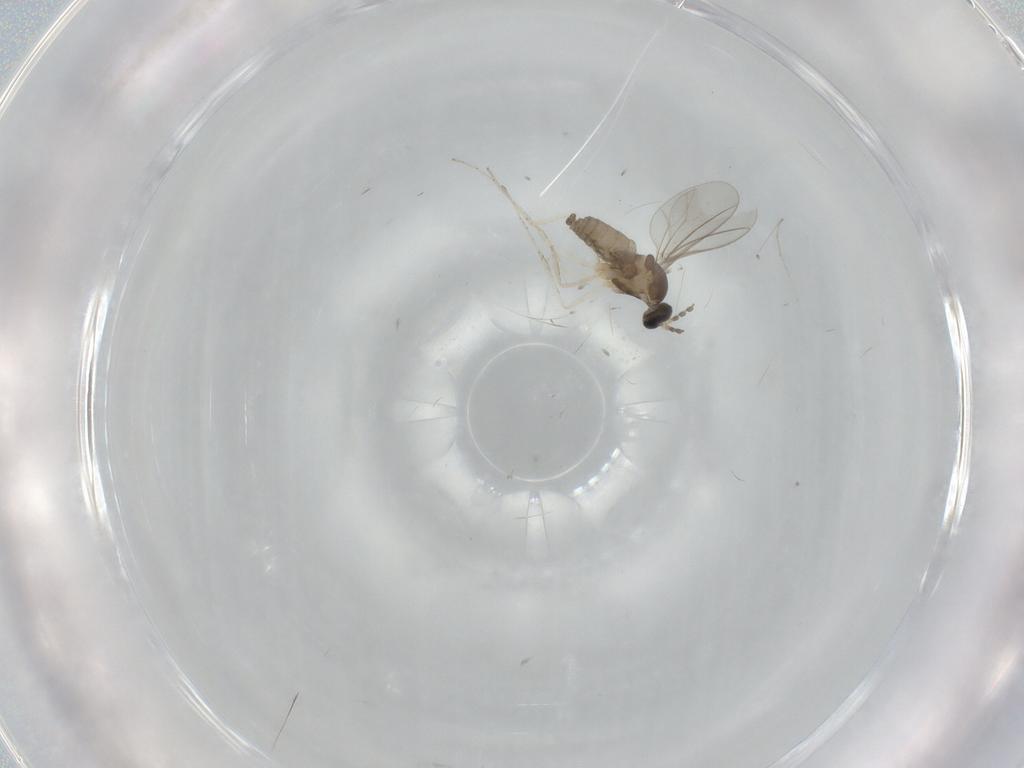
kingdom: Animalia
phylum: Arthropoda
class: Insecta
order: Diptera
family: Cecidomyiidae
